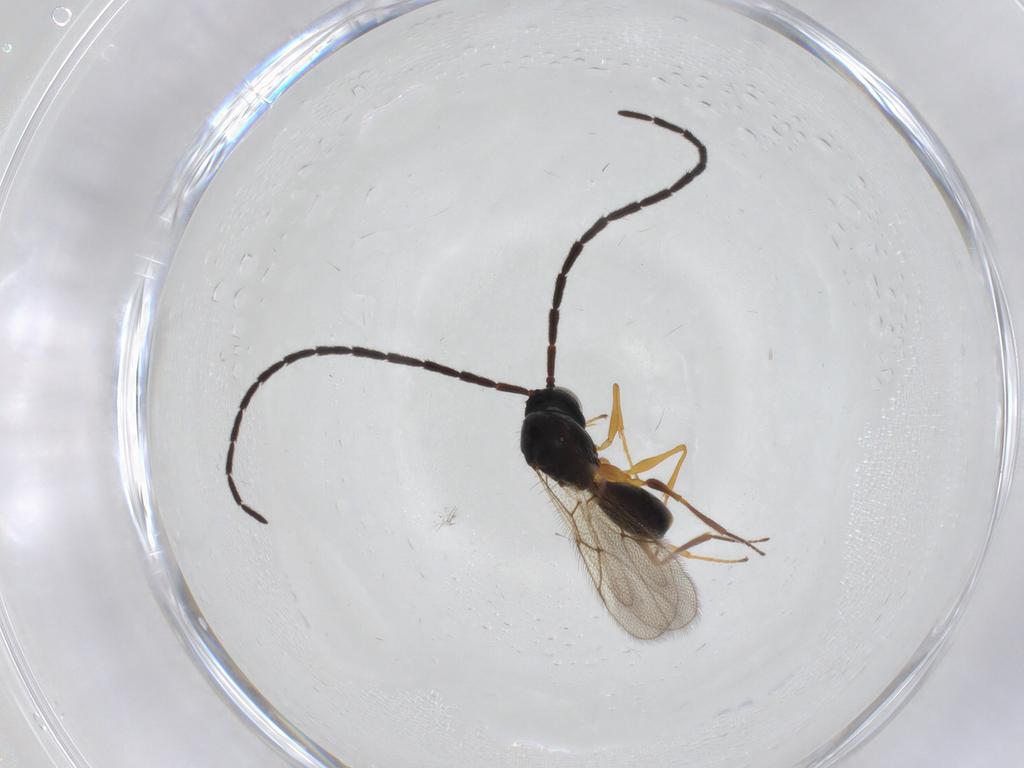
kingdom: Animalia
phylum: Arthropoda
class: Insecta
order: Hymenoptera
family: Figitidae
